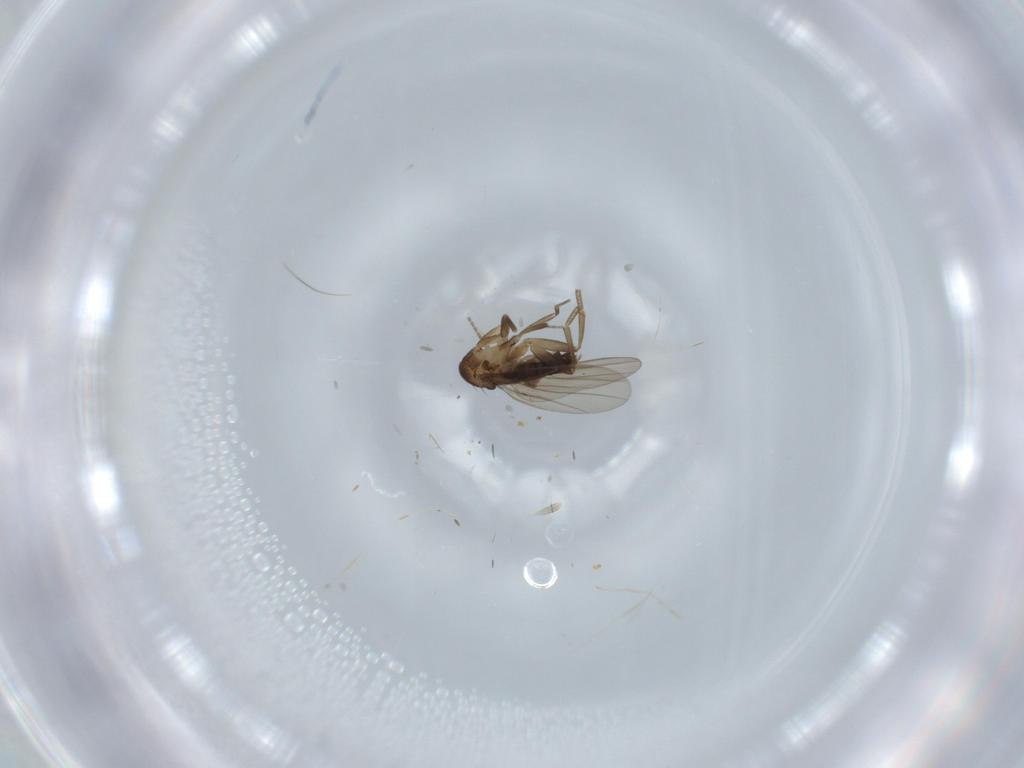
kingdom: Animalia
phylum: Arthropoda
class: Insecta
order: Diptera
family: Phoridae
